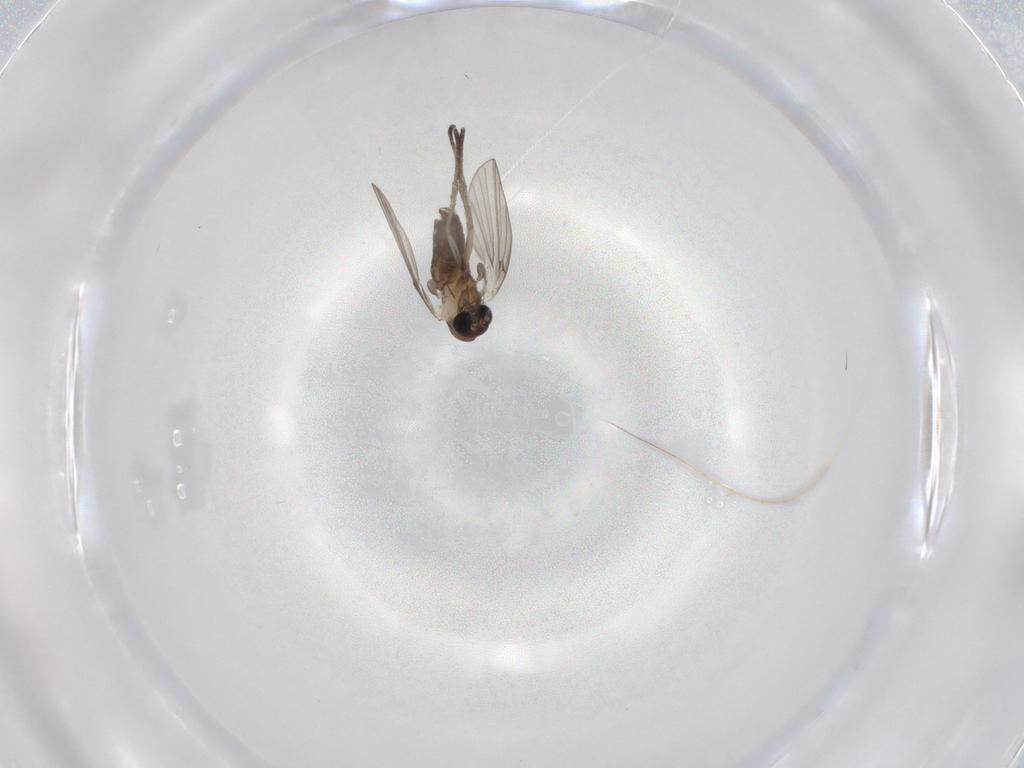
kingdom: Animalia
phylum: Arthropoda
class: Insecta
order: Diptera
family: Psychodidae
